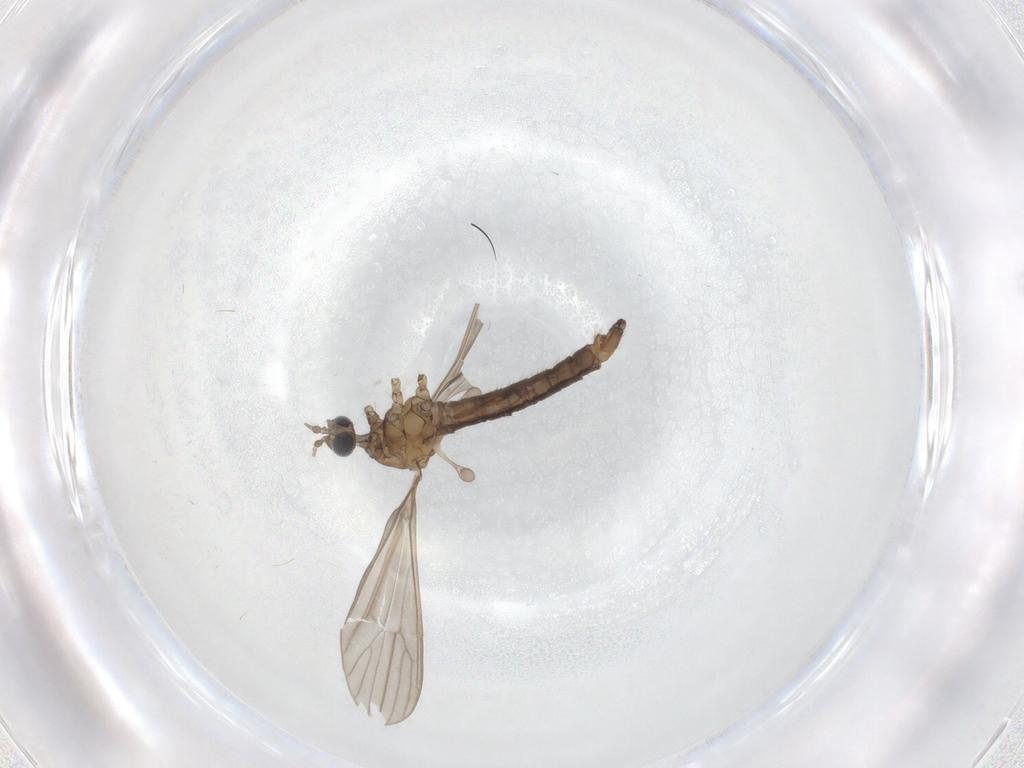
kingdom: Animalia
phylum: Arthropoda
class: Insecta
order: Diptera
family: Limoniidae
